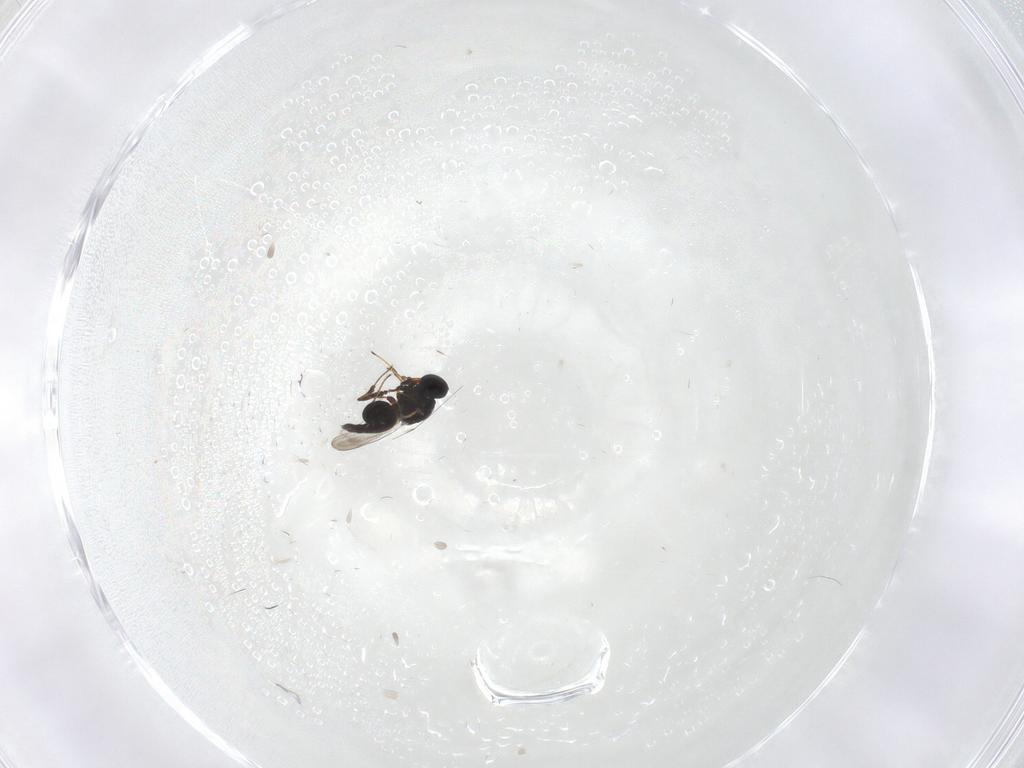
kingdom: Animalia
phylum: Arthropoda
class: Insecta
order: Hymenoptera
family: Platygastridae
